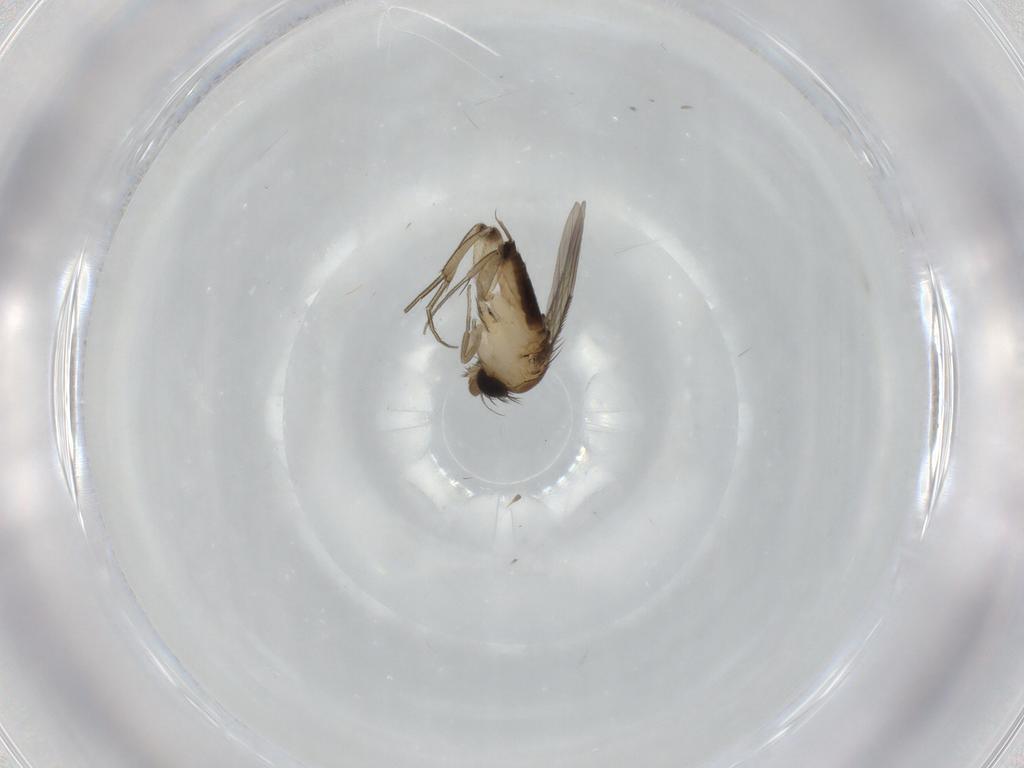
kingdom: Animalia
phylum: Arthropoda
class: Insecta
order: Diptera
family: Phoridae
